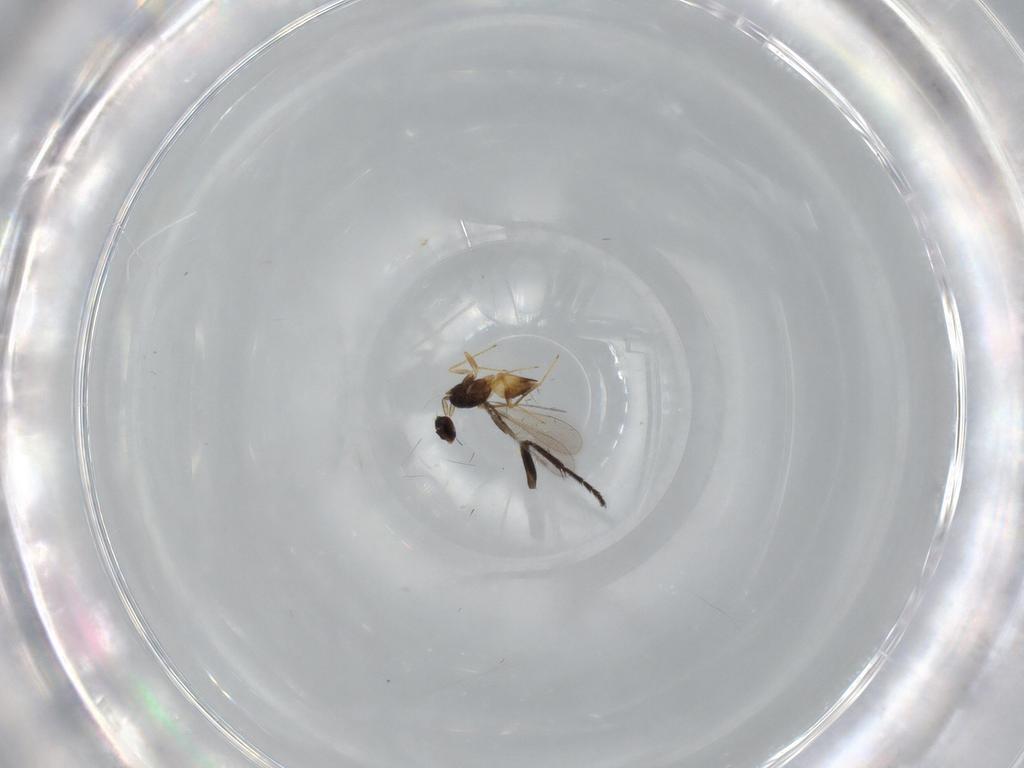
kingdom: Animalia
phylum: Arthropoda
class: Insecta
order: Hymenoptera
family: Mymaridae
